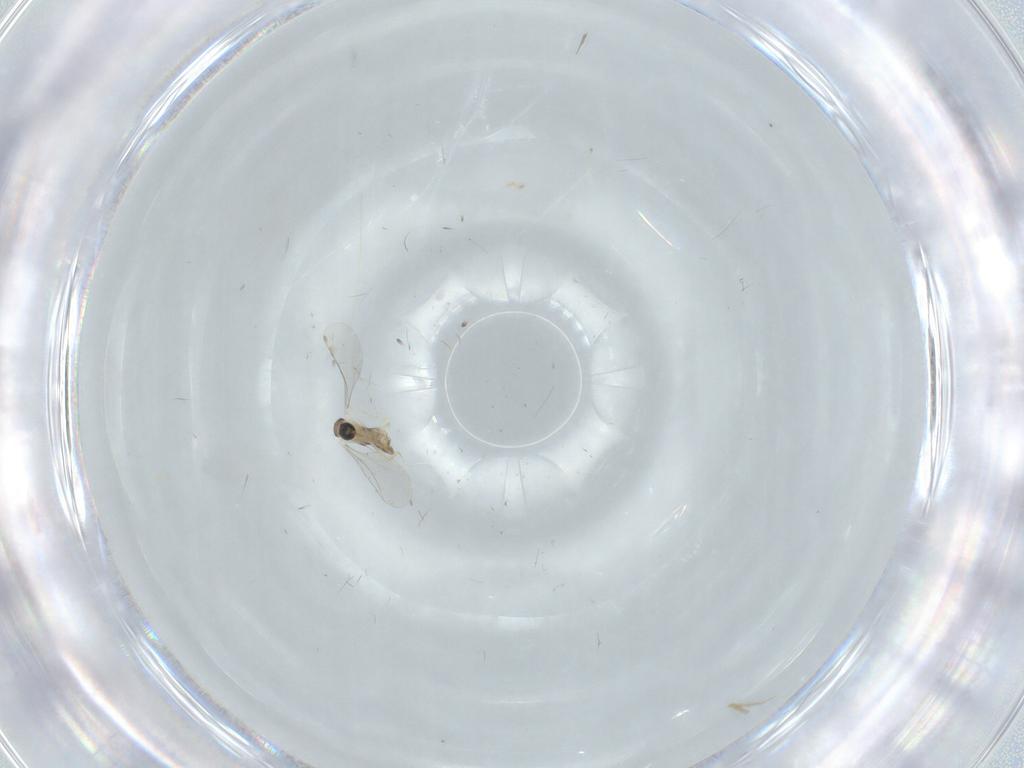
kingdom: Animalia
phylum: Arthropoda
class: Insecta
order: Diptera
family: Cecidomyiidae
